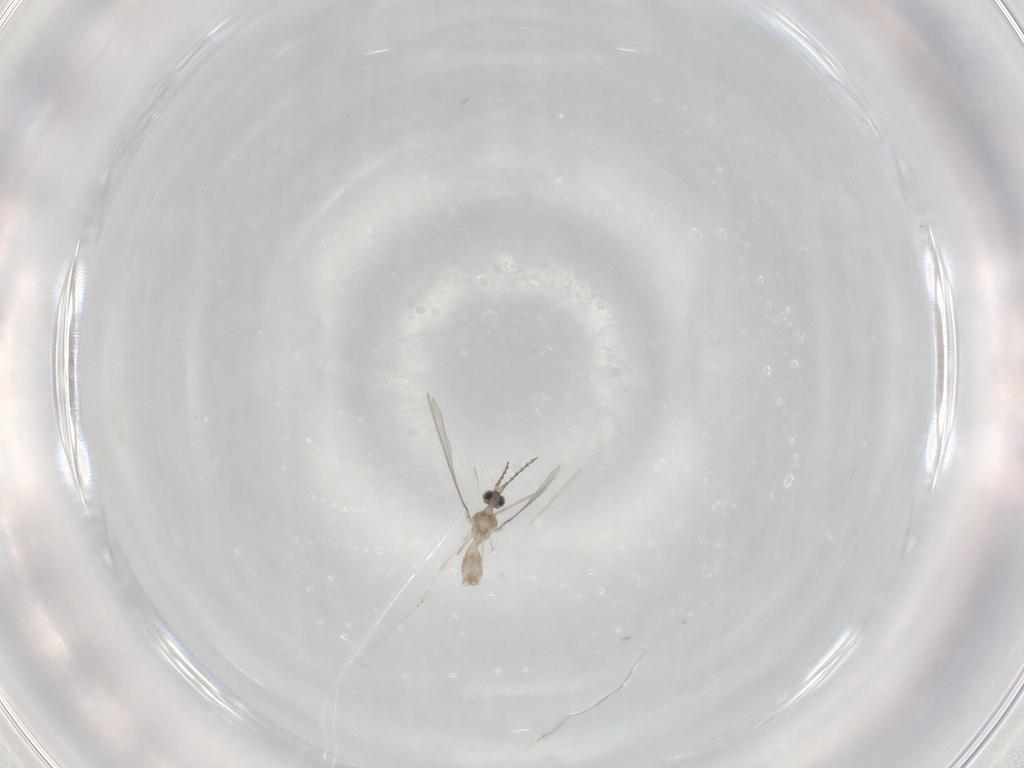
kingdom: Animalia
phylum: Arthropoda
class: Insecta
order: Diptera
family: Cecidomyiidae
